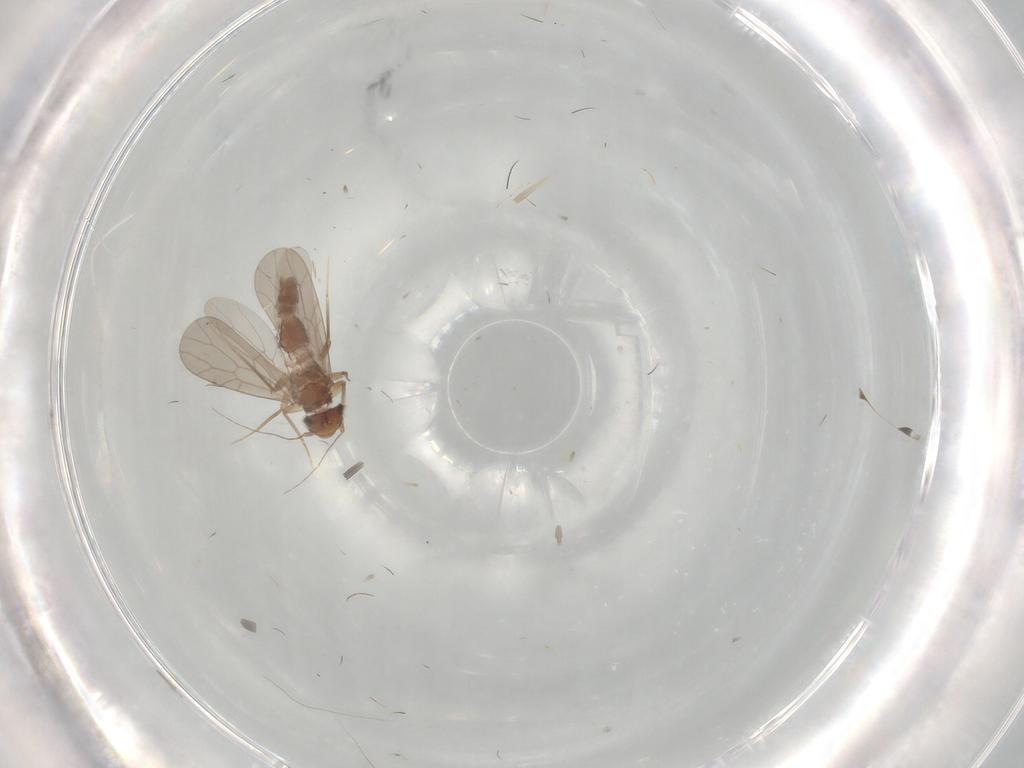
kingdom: Animalia
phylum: Arthropoda
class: Insecta
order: Psocodea
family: Lepidopsocidae
